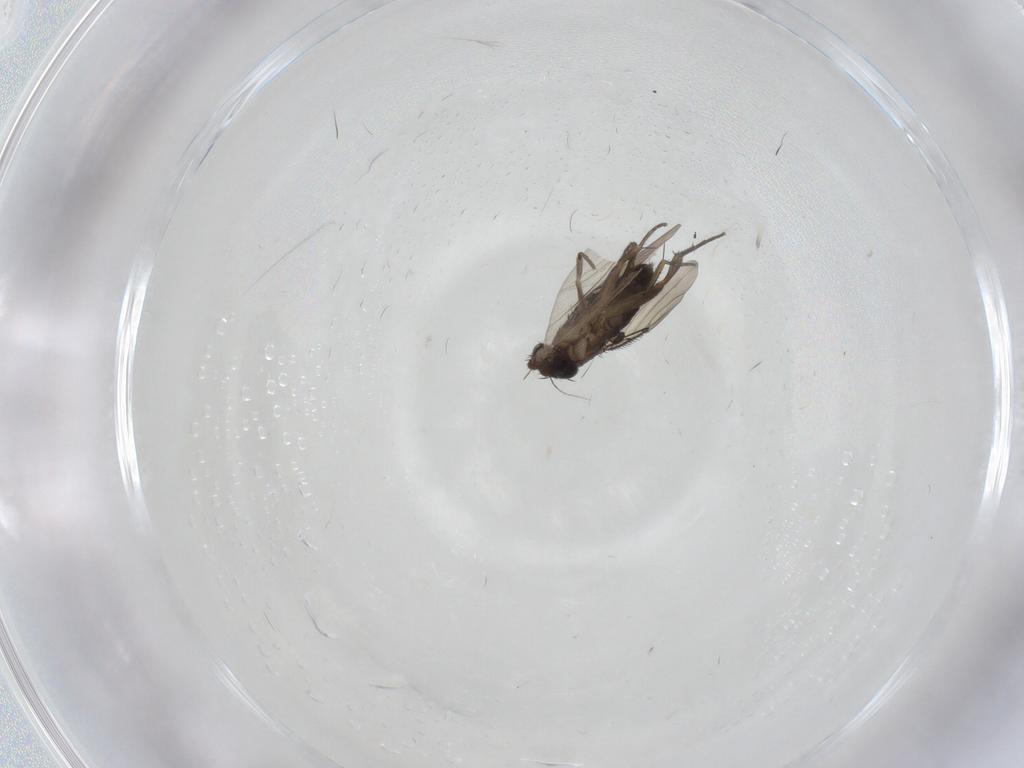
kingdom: Animalia
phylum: Arthropoda
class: Insecta
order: Diptera
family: Phoridae
